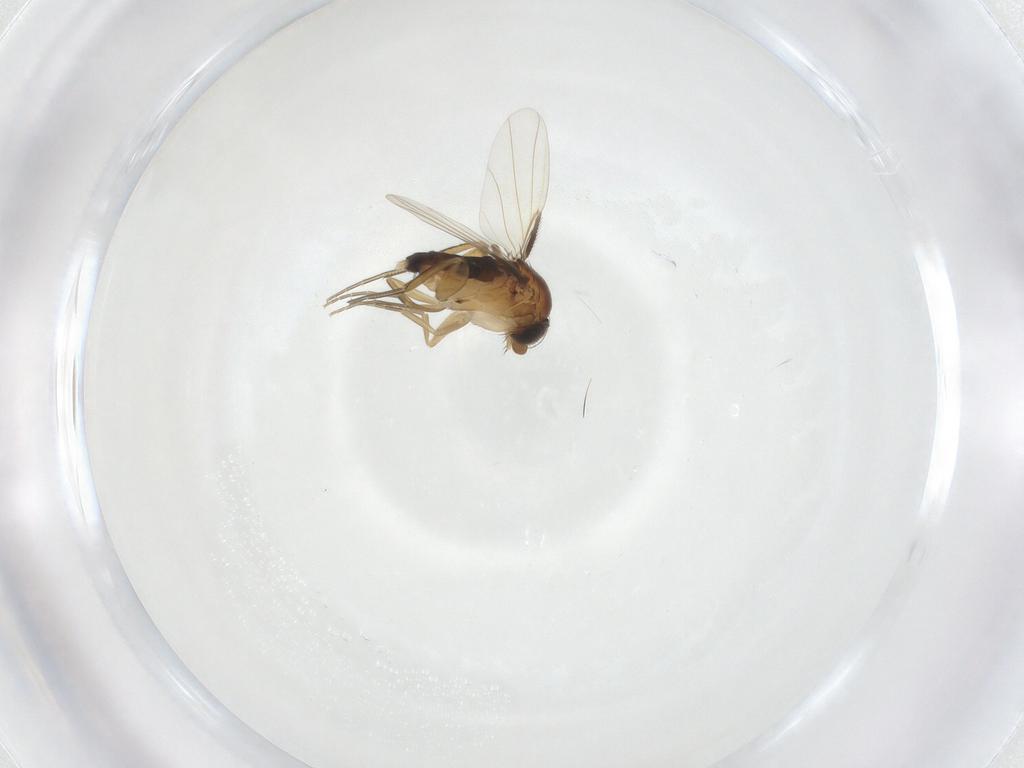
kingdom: Animalia
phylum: Arthropoda
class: Insecta
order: Diptera
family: Phoridae
